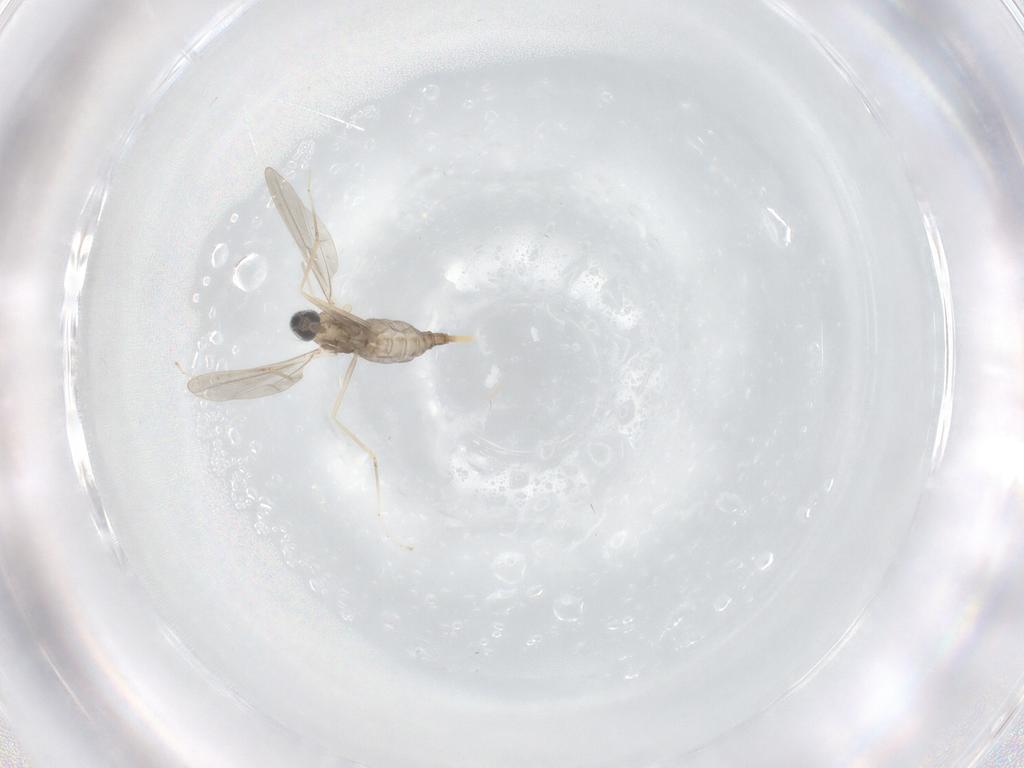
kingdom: Animalia
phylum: Arthropoda
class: Insecta
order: Diptera
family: Cecidomyiidae
